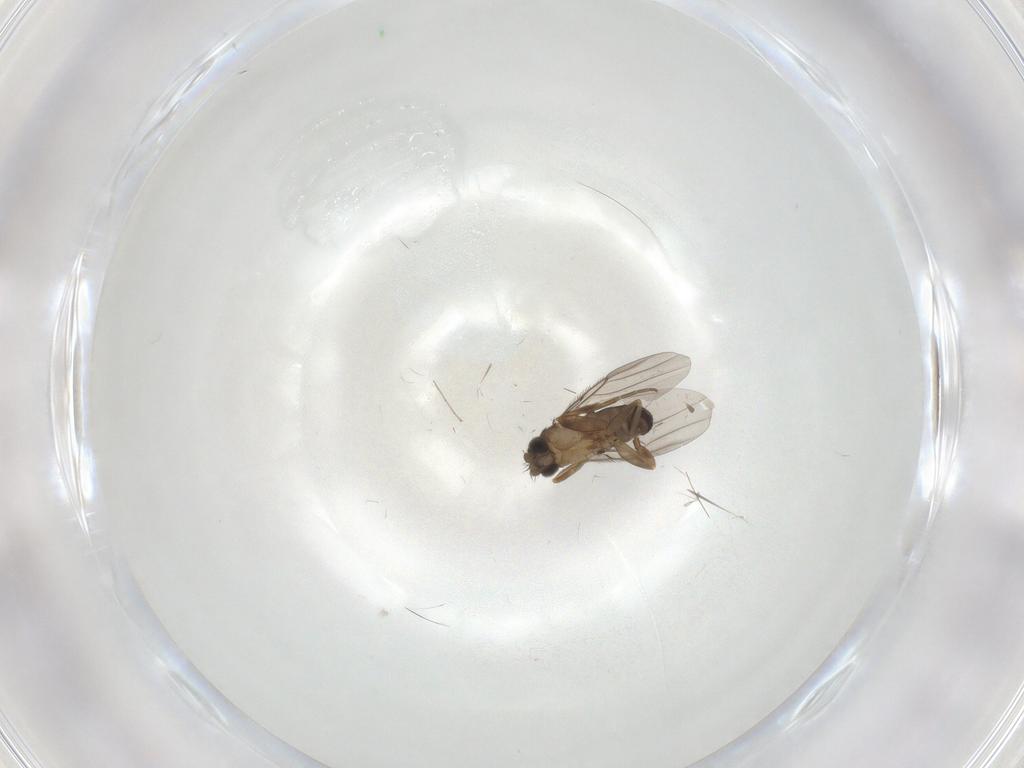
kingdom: Animalia
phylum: Arthropoda
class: Insecta
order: Diptera
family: Cecidomyiidae
